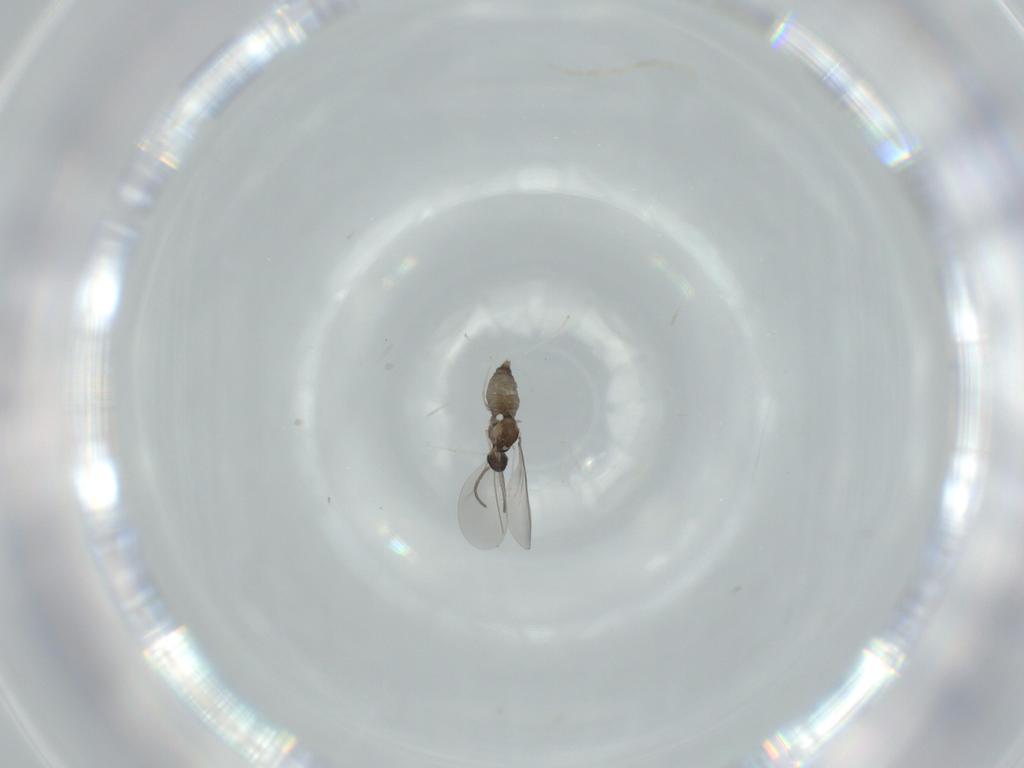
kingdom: Animalia
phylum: Arthropoda
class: Insecta
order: Diptera
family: Cecidomyiidae
